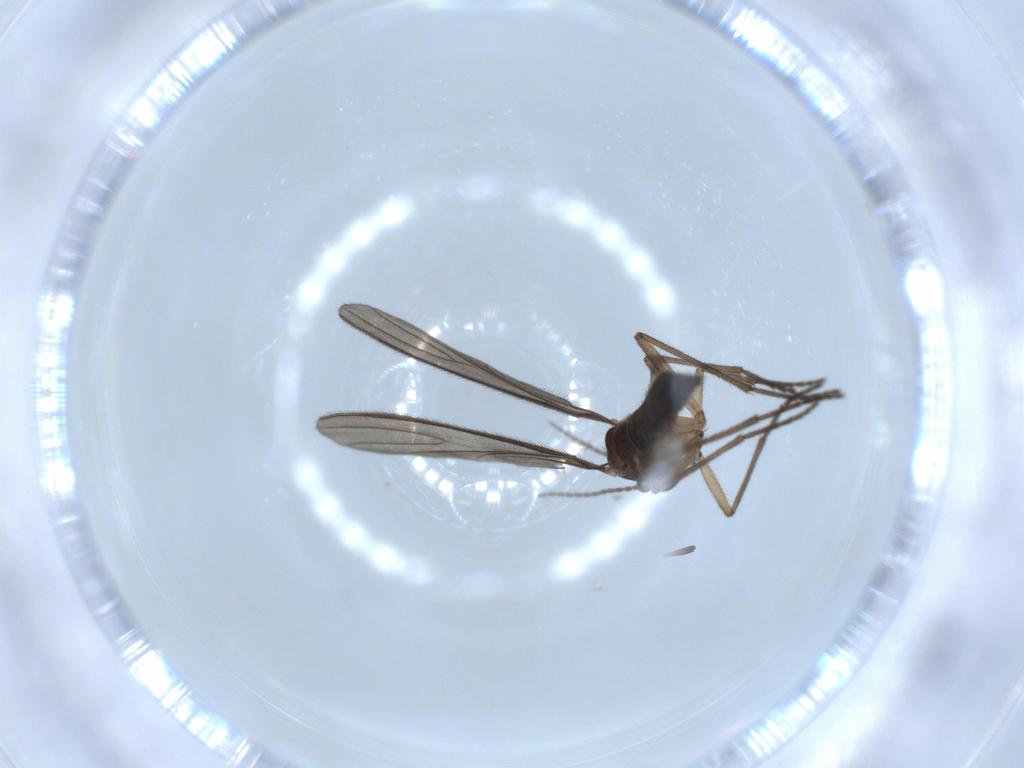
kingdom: Animalia
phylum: Arthropoda
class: Insecta
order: Diptera
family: Sciaridae
